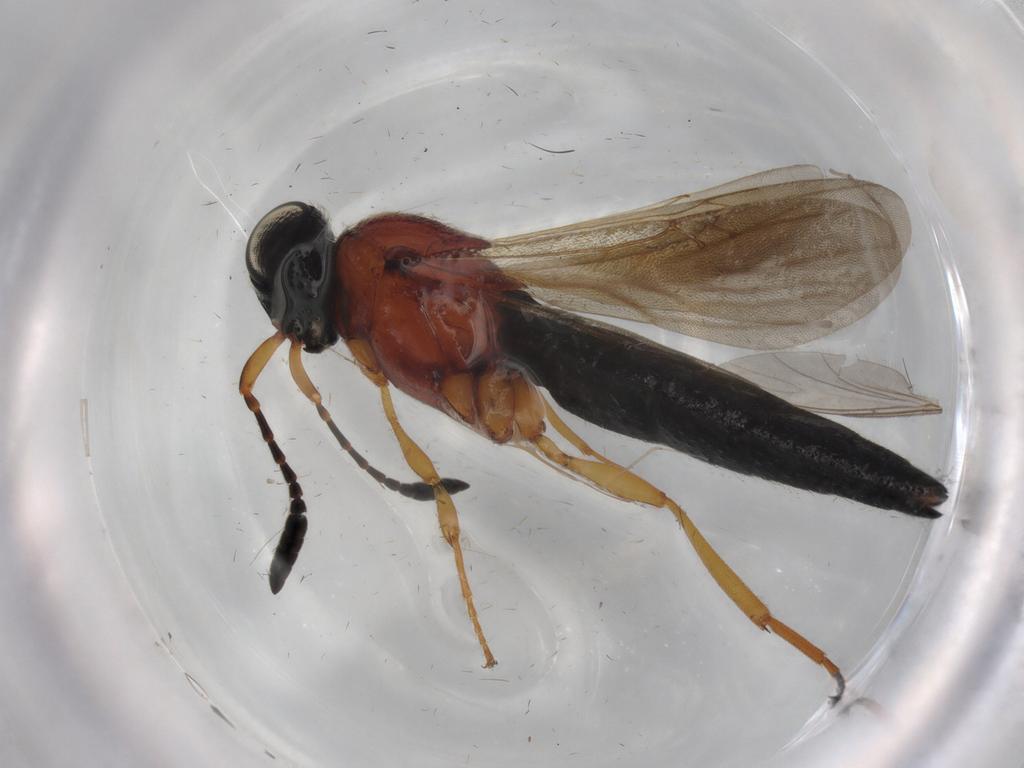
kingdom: Animalia
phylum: Arthropoda
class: Insecta
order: Hymenoptera
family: Scelionidae
